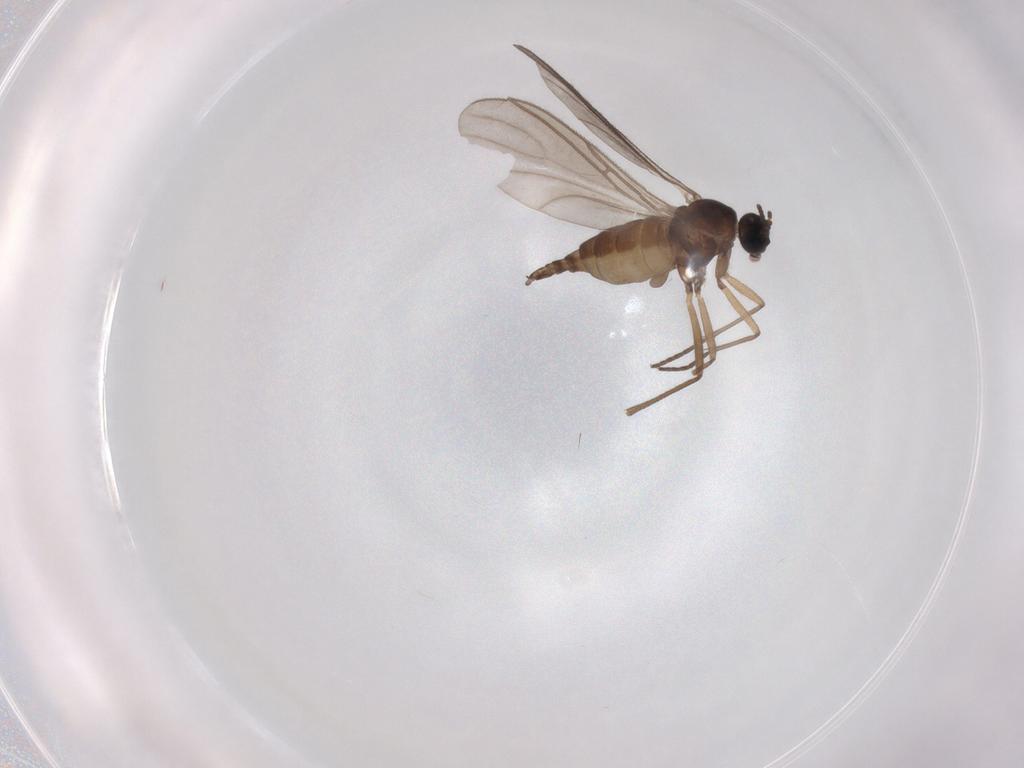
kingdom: Animalia
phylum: Arthropoda
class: Insecta
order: Diptera
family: Sciaridae
